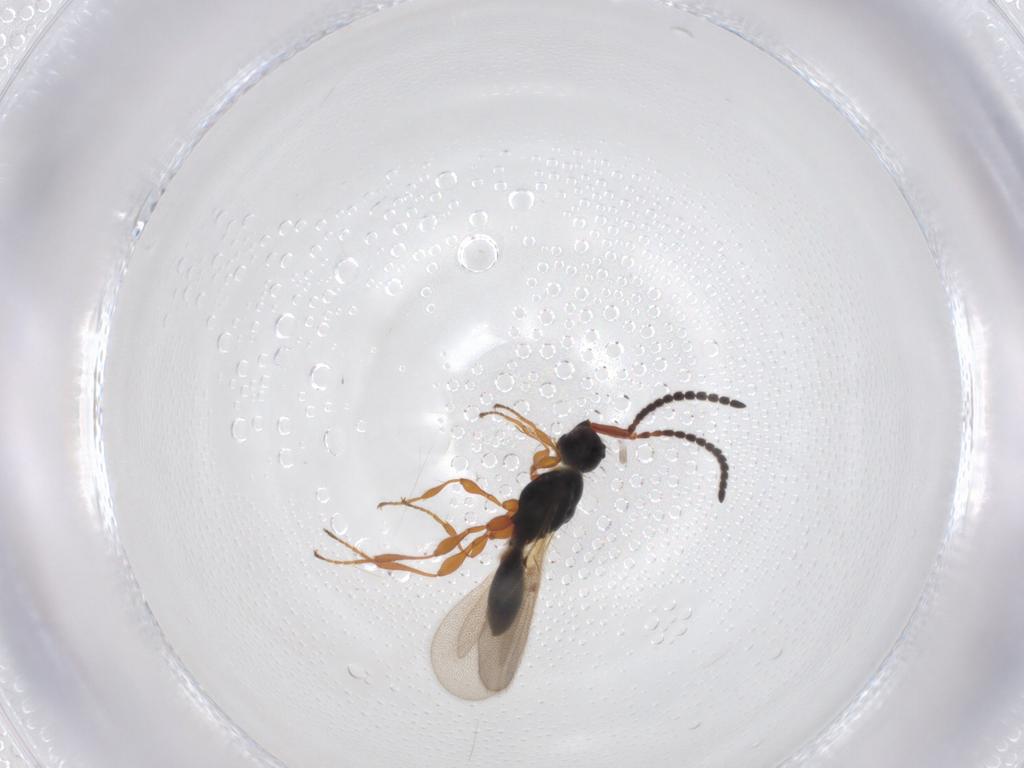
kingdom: Animalia
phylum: Arthropoda
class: Insecta
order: Hymenoptera
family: Diapriidae
